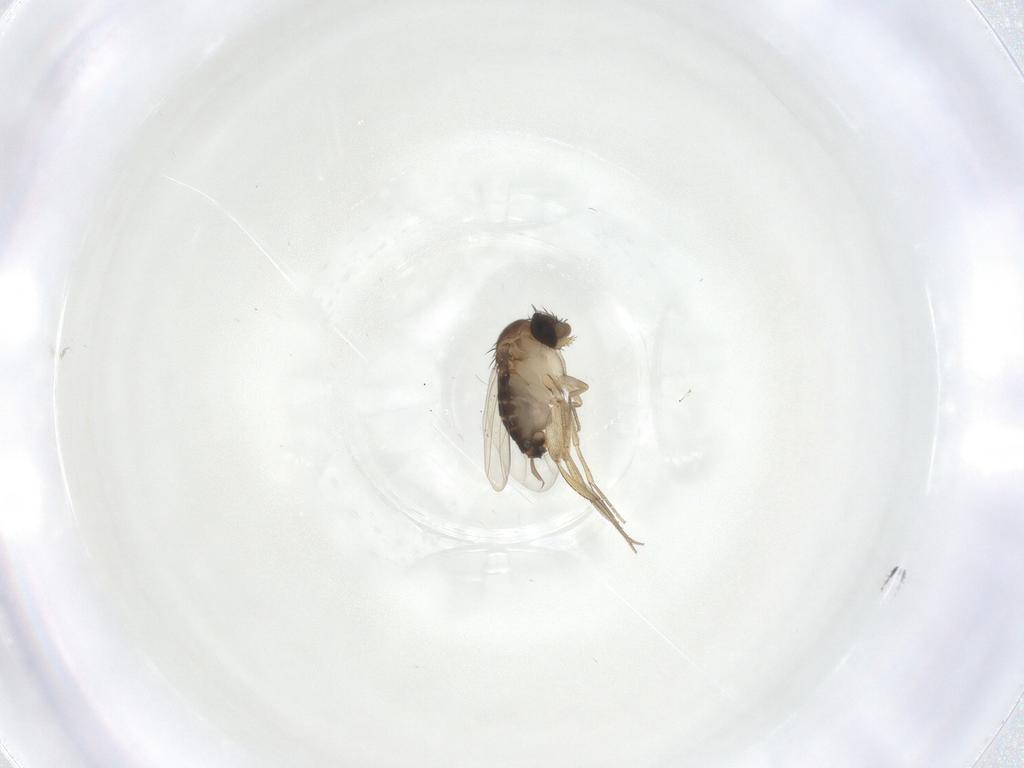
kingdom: Animalia
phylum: Arthropoda
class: Insecta
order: Diptera
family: Phoridae
